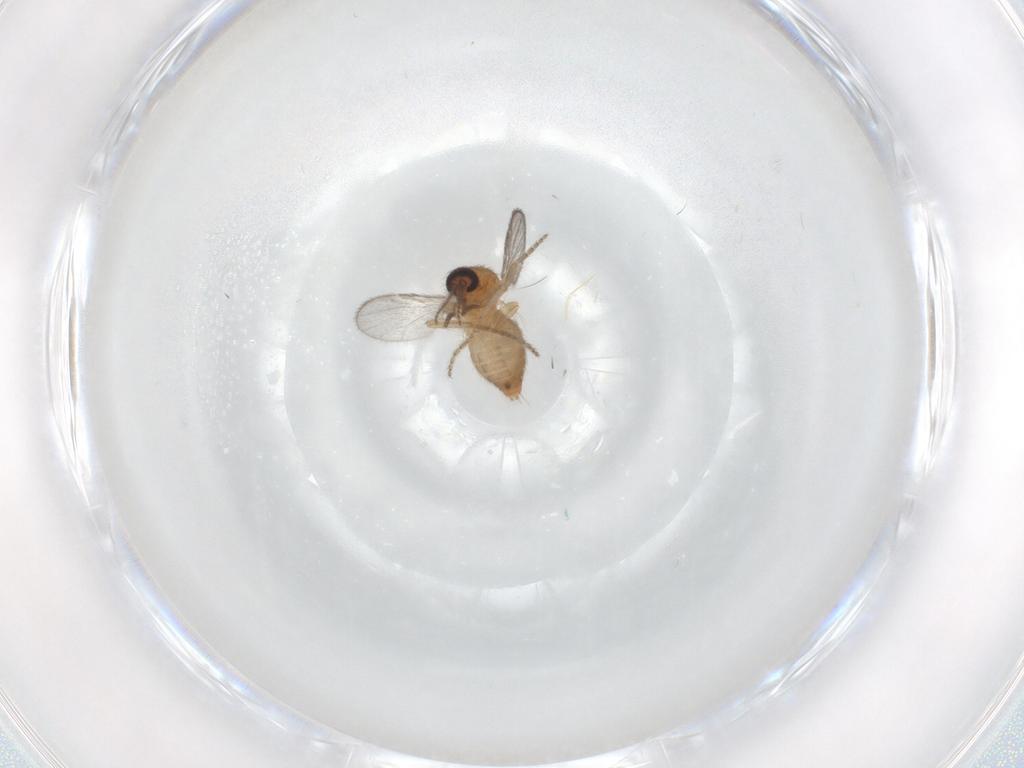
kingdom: Animalia
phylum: Arthropoda
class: Insecta
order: Diptera
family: Ceratopogonidae
